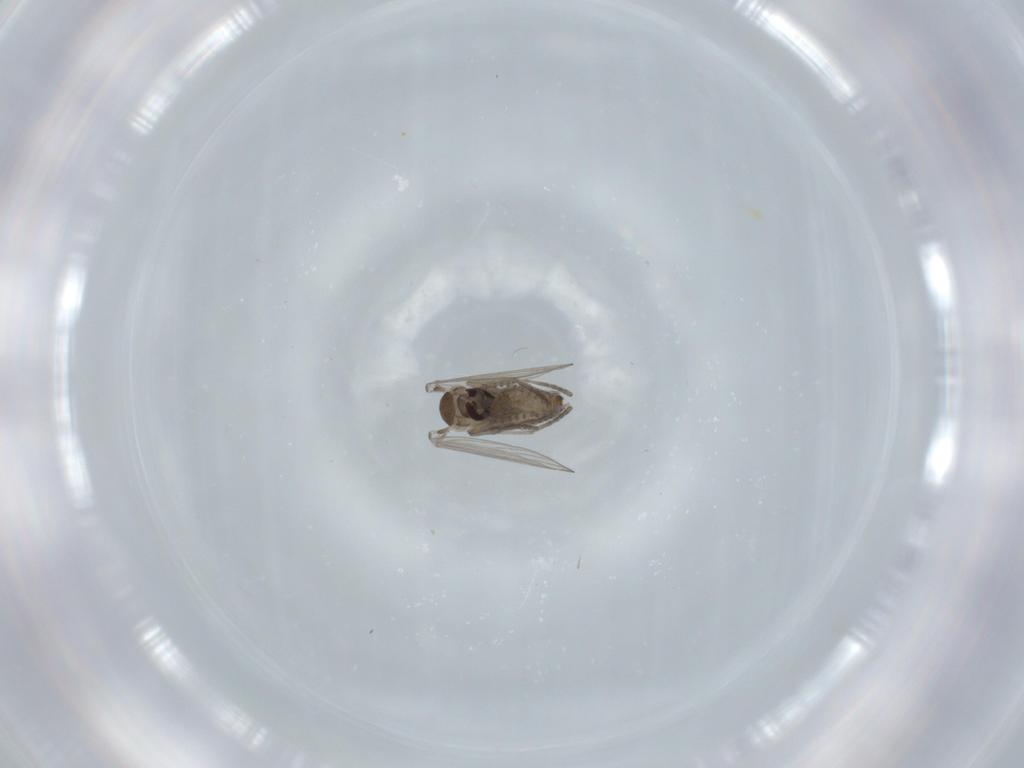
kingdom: Animalia
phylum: Arthropoda
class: Insecta
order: Diptera
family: Psychodidae
